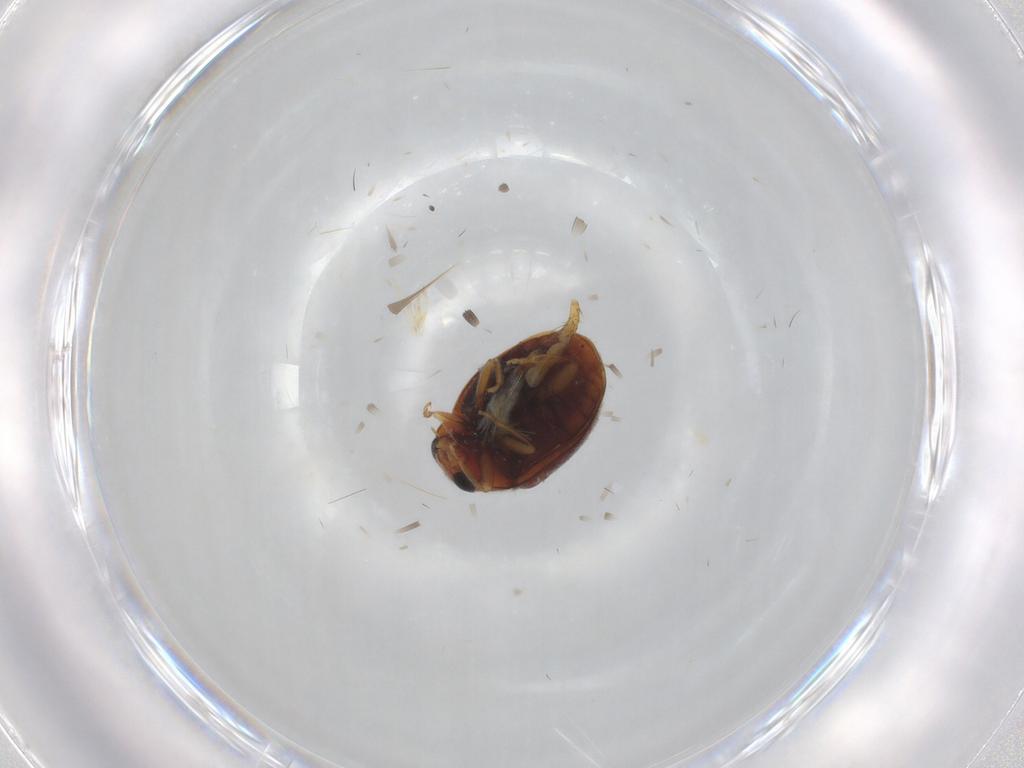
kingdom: Animalia
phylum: Arthropoda
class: Insecta
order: Coleoptera
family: Coccinellidae
